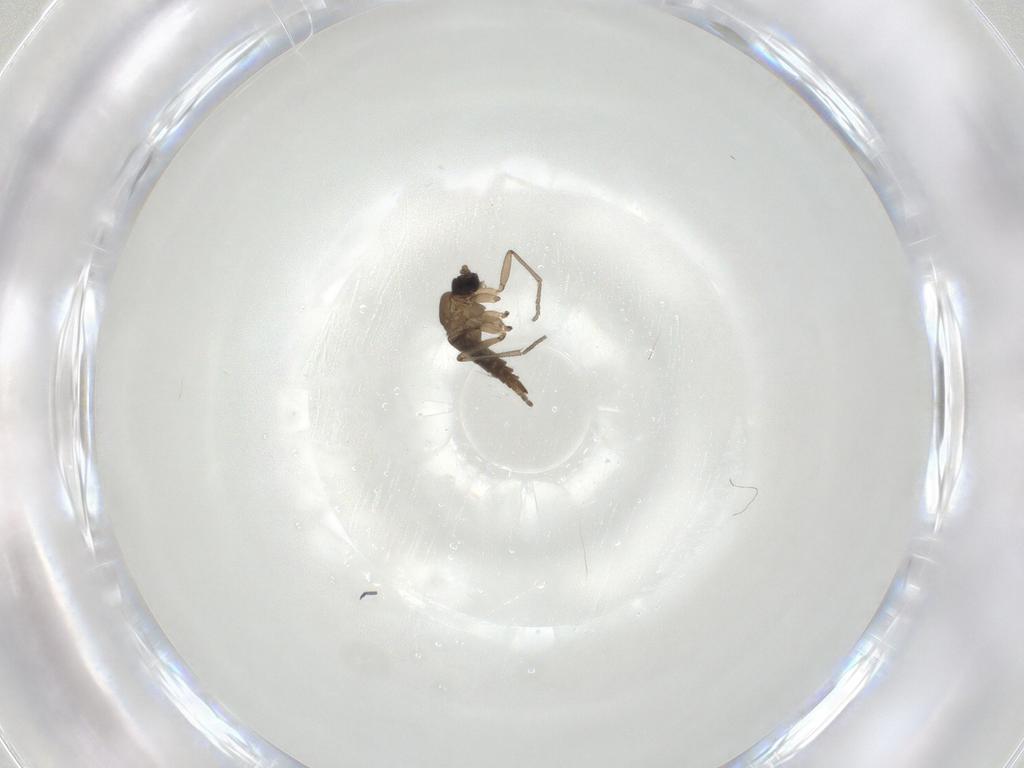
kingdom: Animalia
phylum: Arthropoda
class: Insecta
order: Diptera
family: Sciaridae
